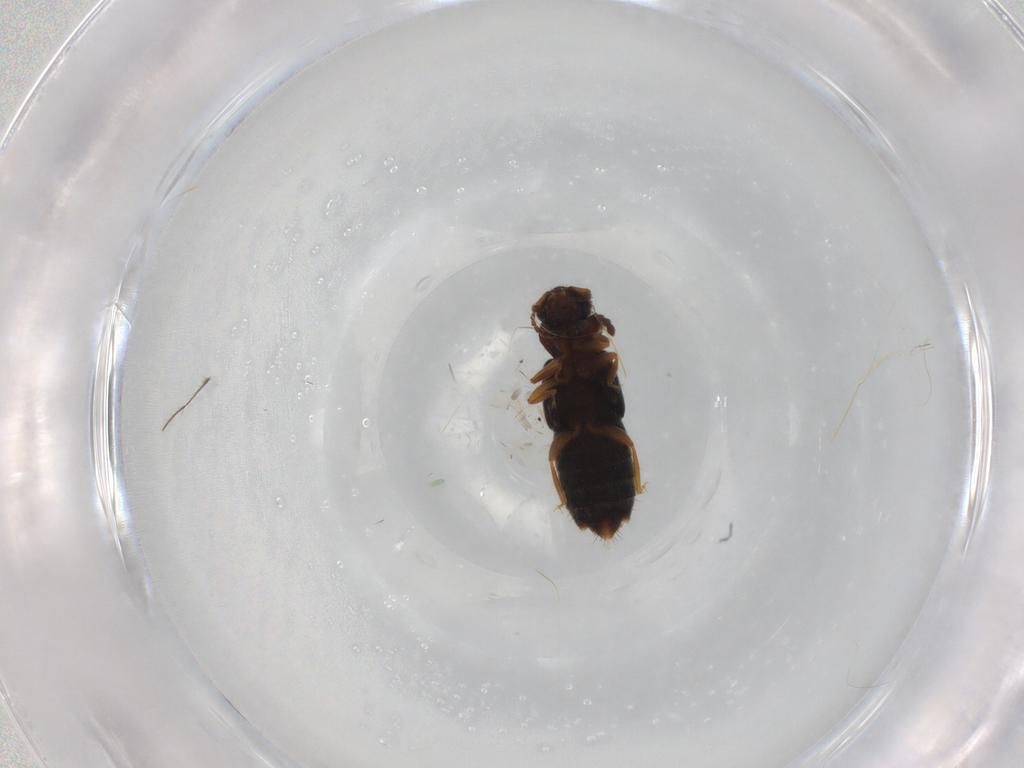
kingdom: Animalia
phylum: Arthropoda
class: Insecta
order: Coleoptera
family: Staphylinidae
